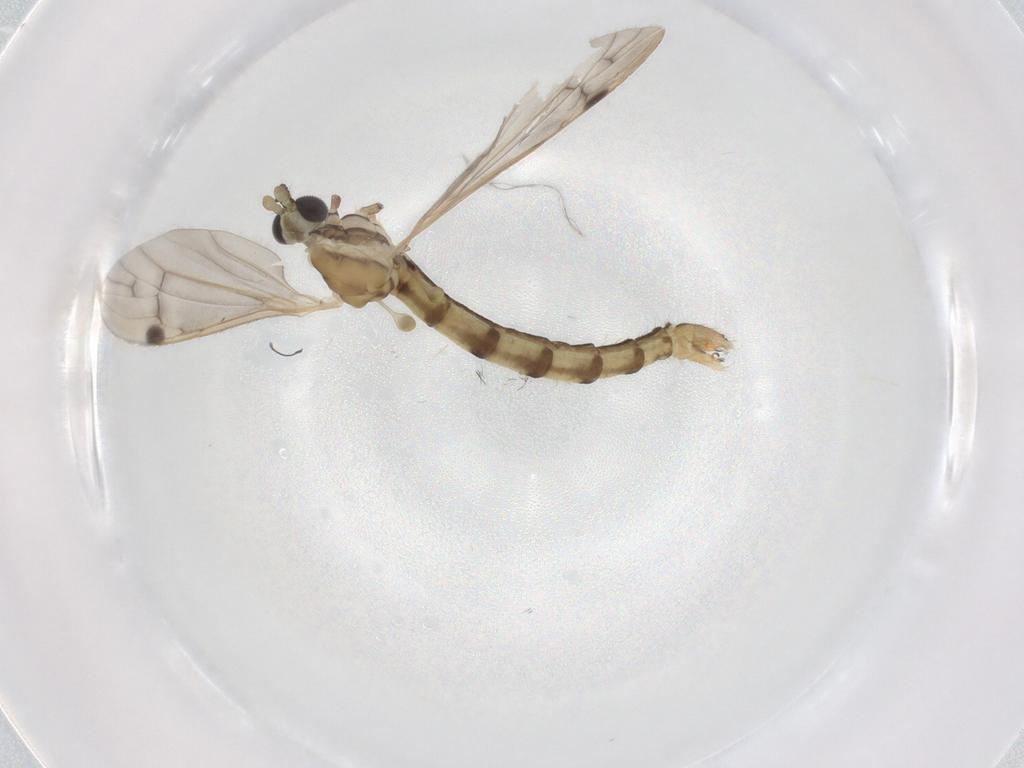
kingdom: Animalia
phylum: Arthropoda
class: Insecta
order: Diptera
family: Limoniidae
